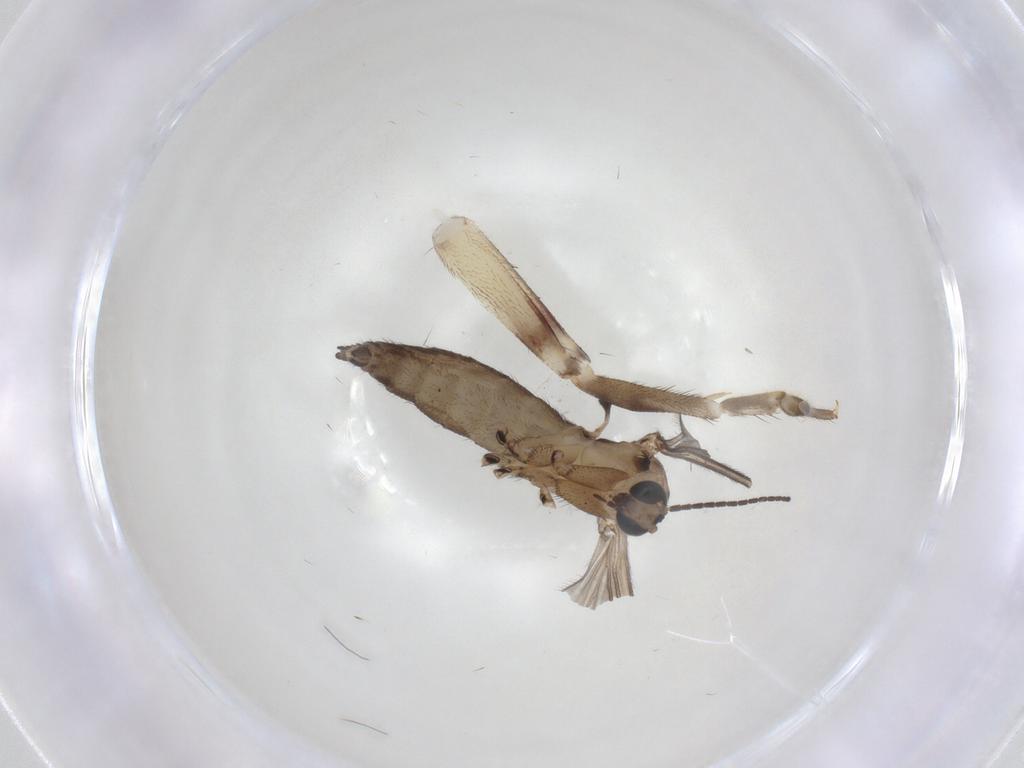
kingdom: Animalia
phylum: Arthropoda
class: Insecta
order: Diptera
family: Sciaridae
